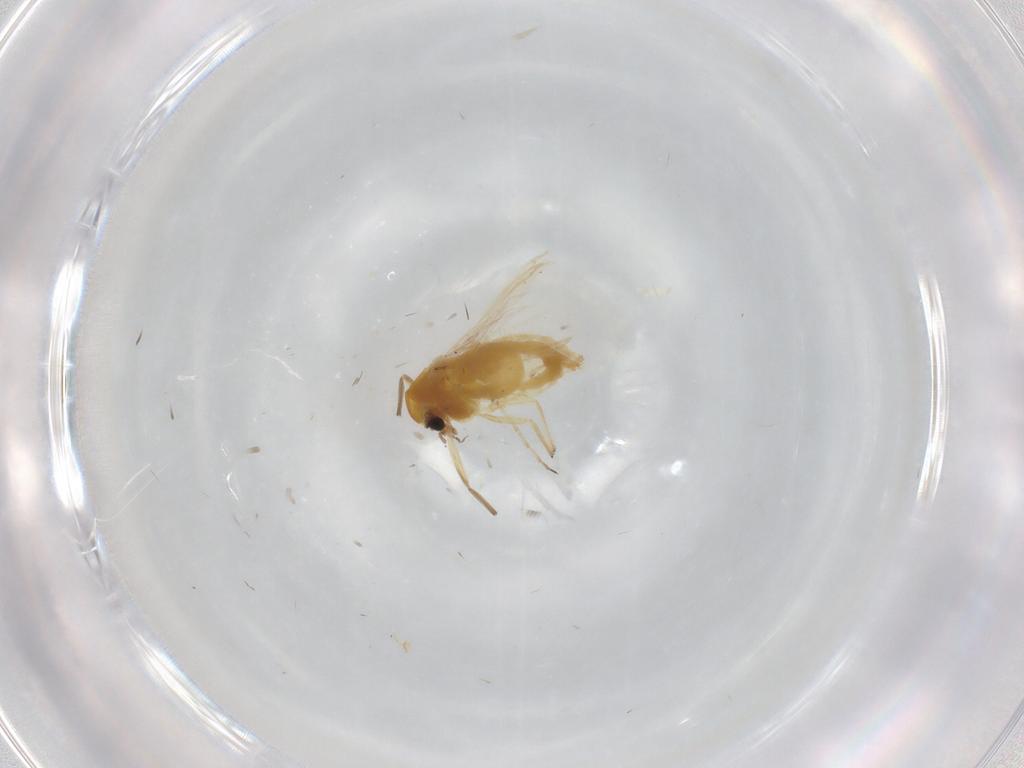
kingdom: Animalia
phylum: Arthropoda
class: Insecta
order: Diptera
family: Chironomidae
